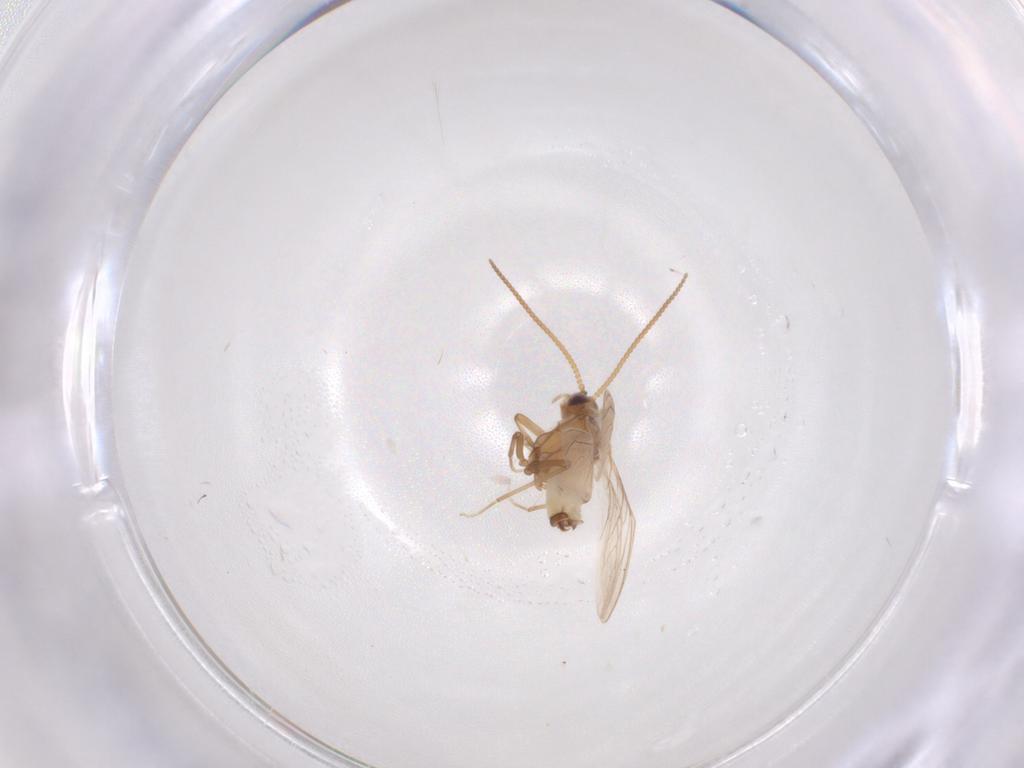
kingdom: Animalia
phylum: Arthropoda
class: Insecta
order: Neuroptera
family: Coniopterygidae
